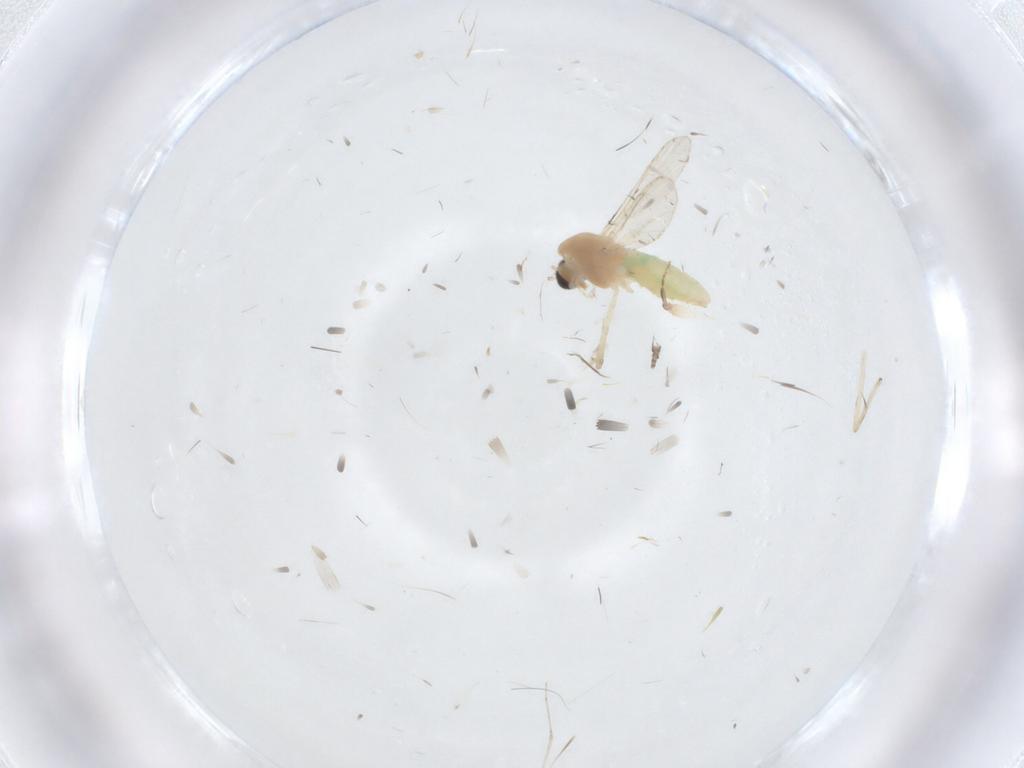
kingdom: Animalia
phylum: Arthropoda
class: Insecta
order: Diptera
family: Chironomidae
